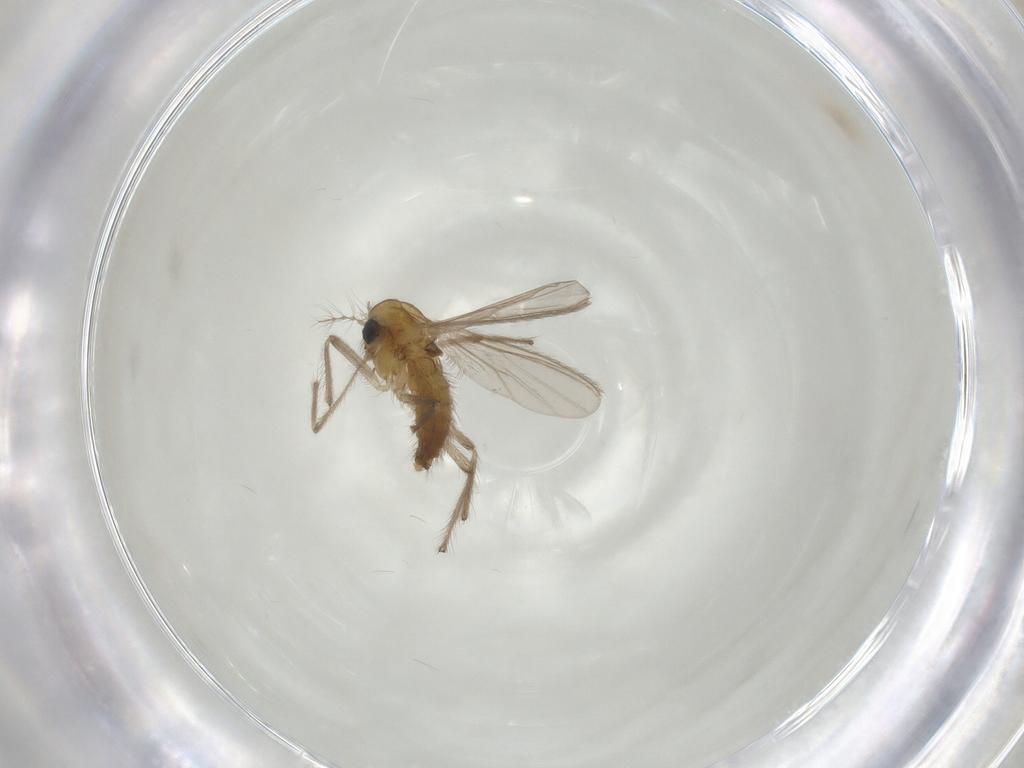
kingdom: Animalia
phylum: Arthropoda
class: Insecta
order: Diptera
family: Chironomidae
